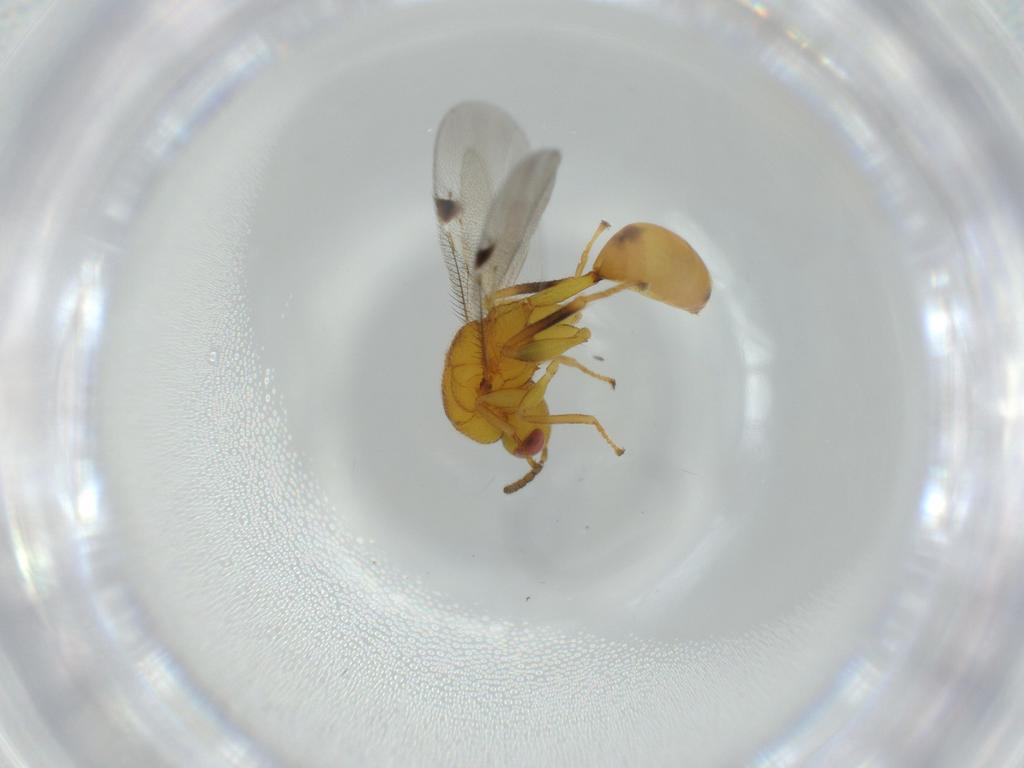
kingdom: Animalia
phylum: Arthropoda
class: Insecta
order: Hymenoptera
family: Eurytomidae
